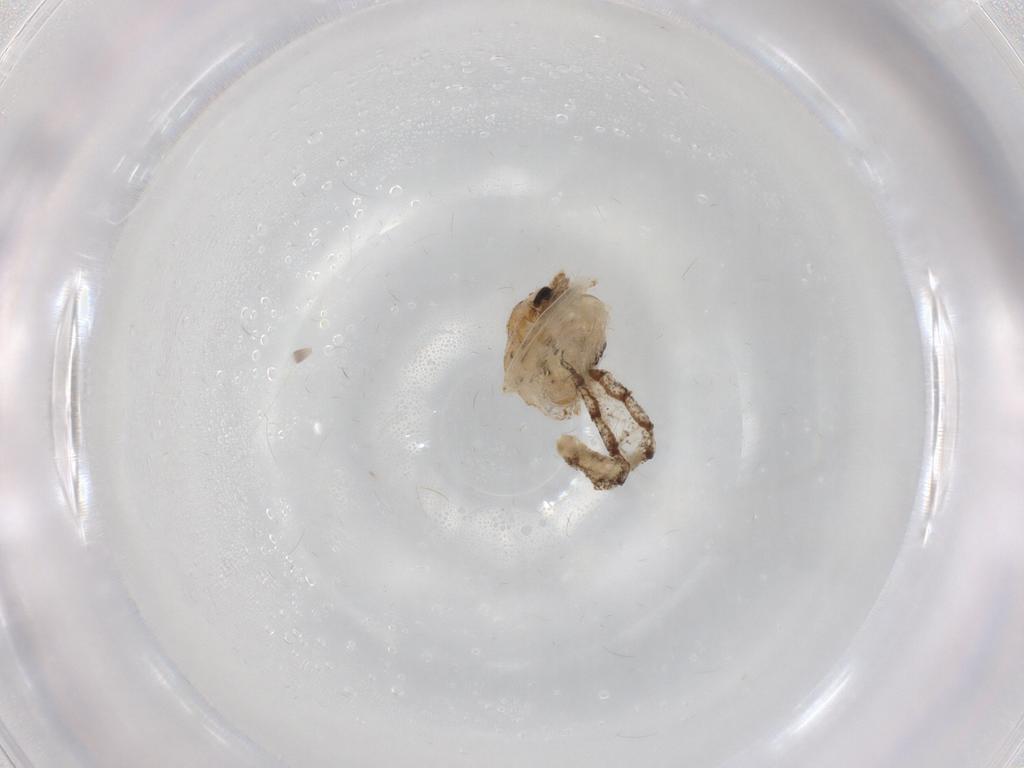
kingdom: Animalia
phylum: Arthropoda
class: Insecta
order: Diptera
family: Chaoboridae
